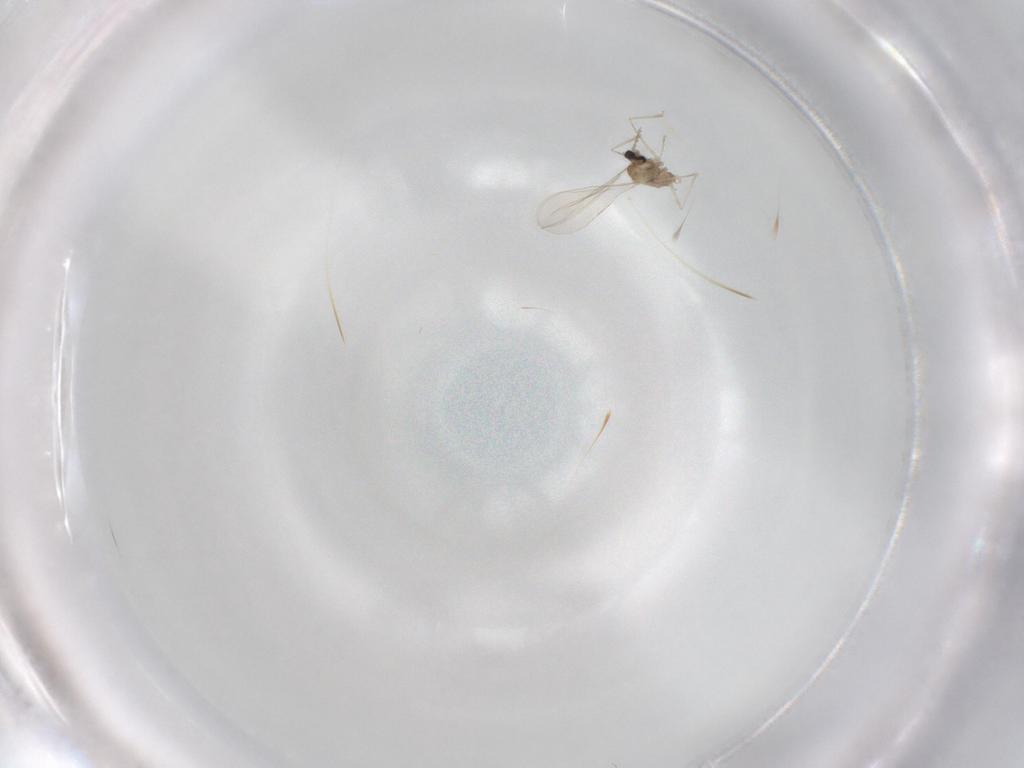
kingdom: Animalia
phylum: Arthropoda
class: Insecta
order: Diptera
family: Cecidomyiidae
